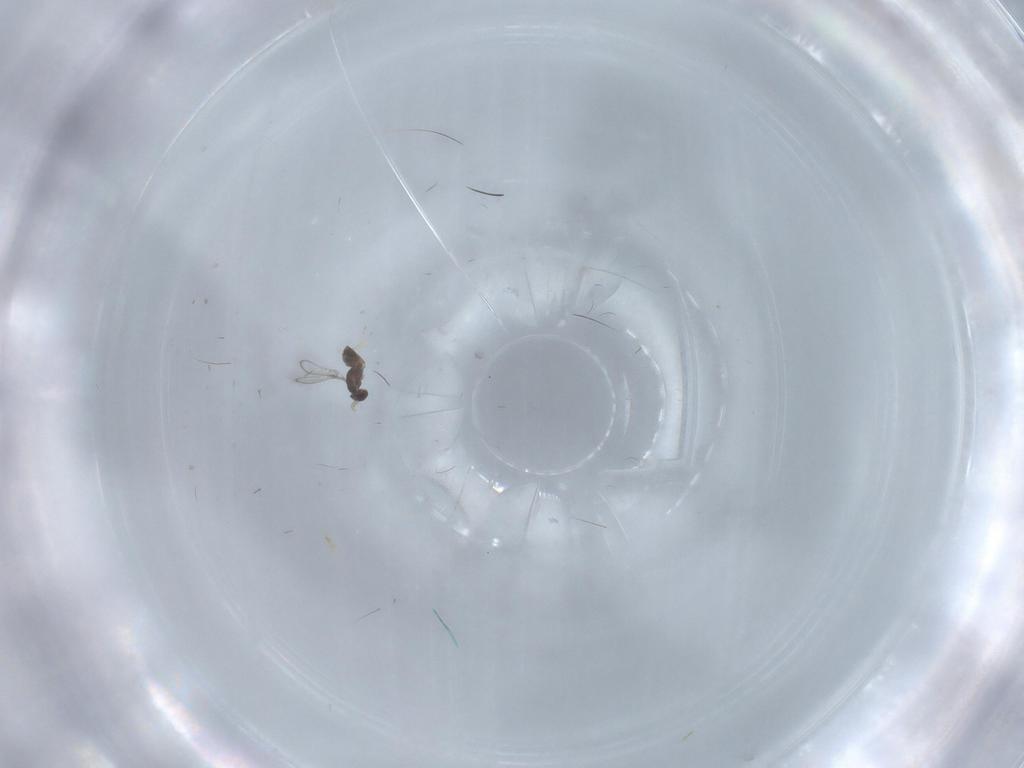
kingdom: Animalia
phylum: Arthropoda
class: Insecta
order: Hymenoptera
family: Mymaridae
